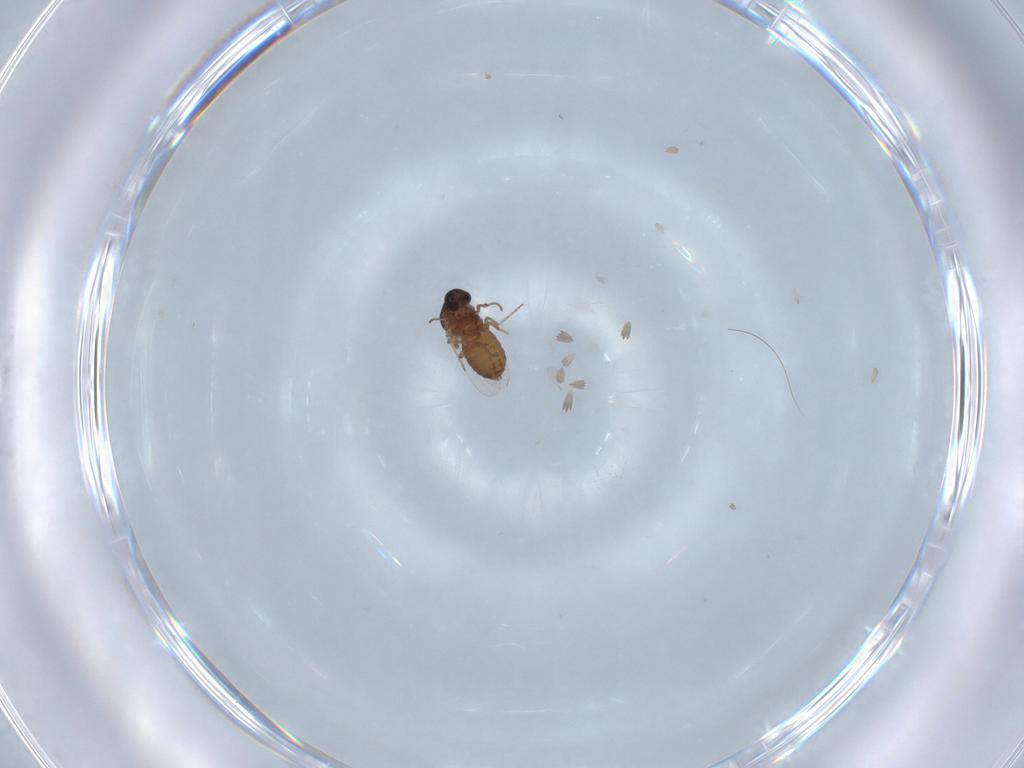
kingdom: Animalia
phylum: Arthropoda
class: Insecta
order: Diptera
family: Ceratopogonidae
